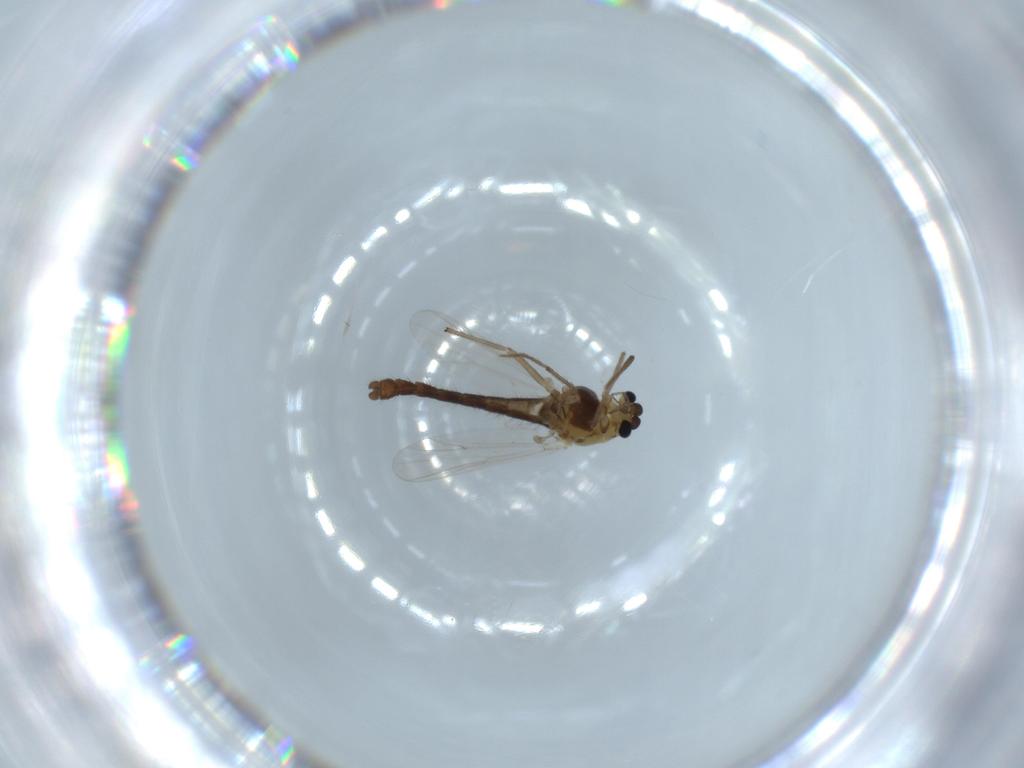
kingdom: Animalia
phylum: Arthropoda
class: Insecta
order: Diptera
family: Chironomidae
